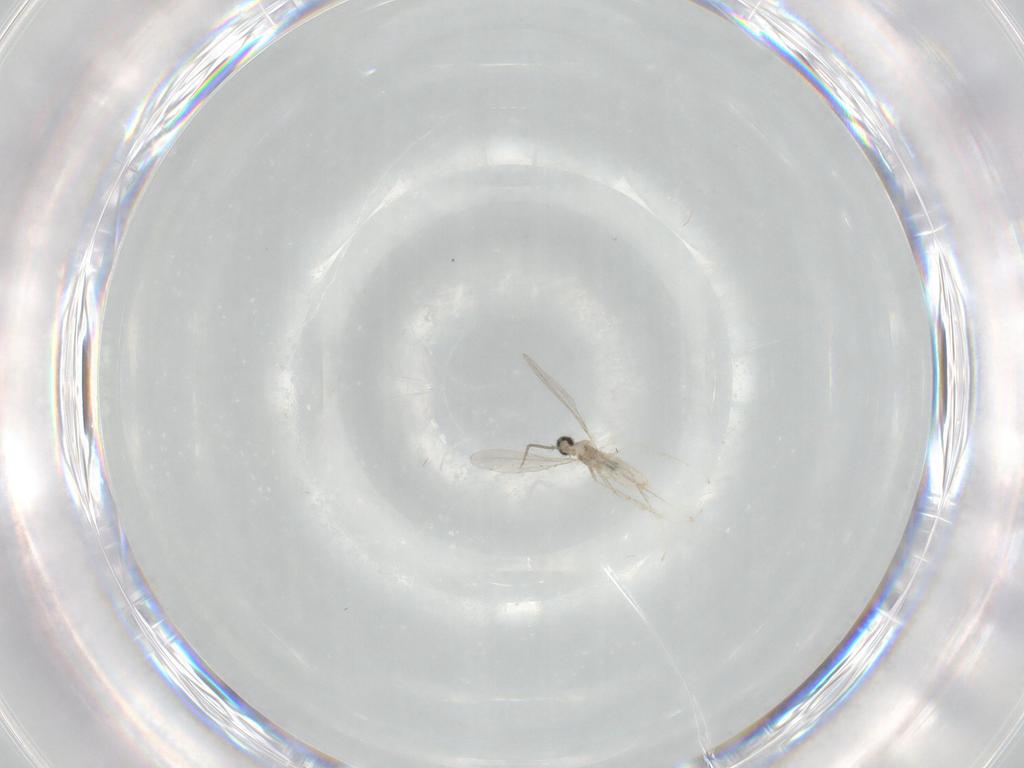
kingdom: Animalia
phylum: Arthropoda
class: Insecta
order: Diptera
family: Cecidomyiidae
